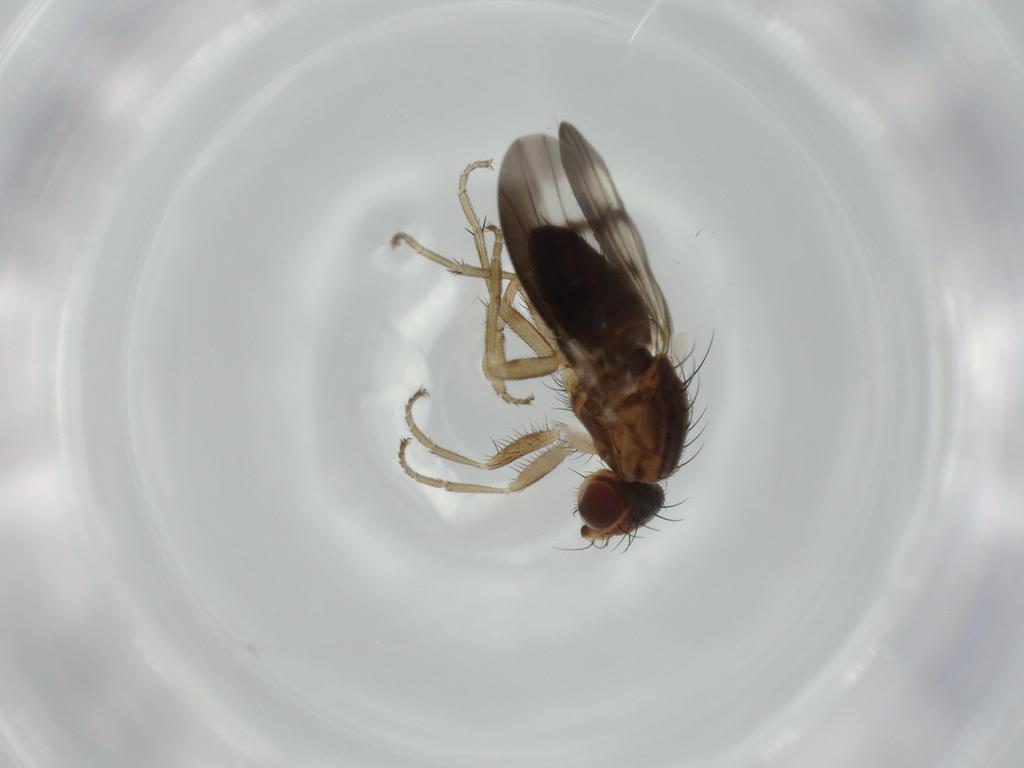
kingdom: Animalia
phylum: Arthropoda
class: Insecta
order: Diptera
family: Heleomyzidae
